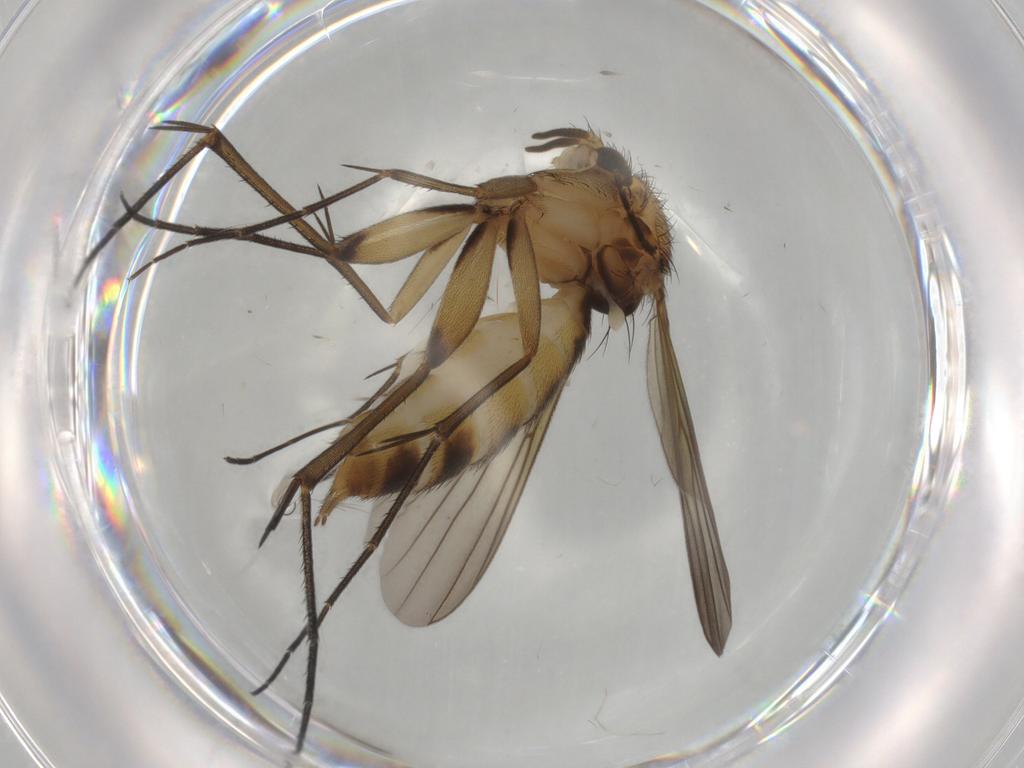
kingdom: Animalia
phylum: Arthropoda
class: Insecta
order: Diptera
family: Mycetophilidae
